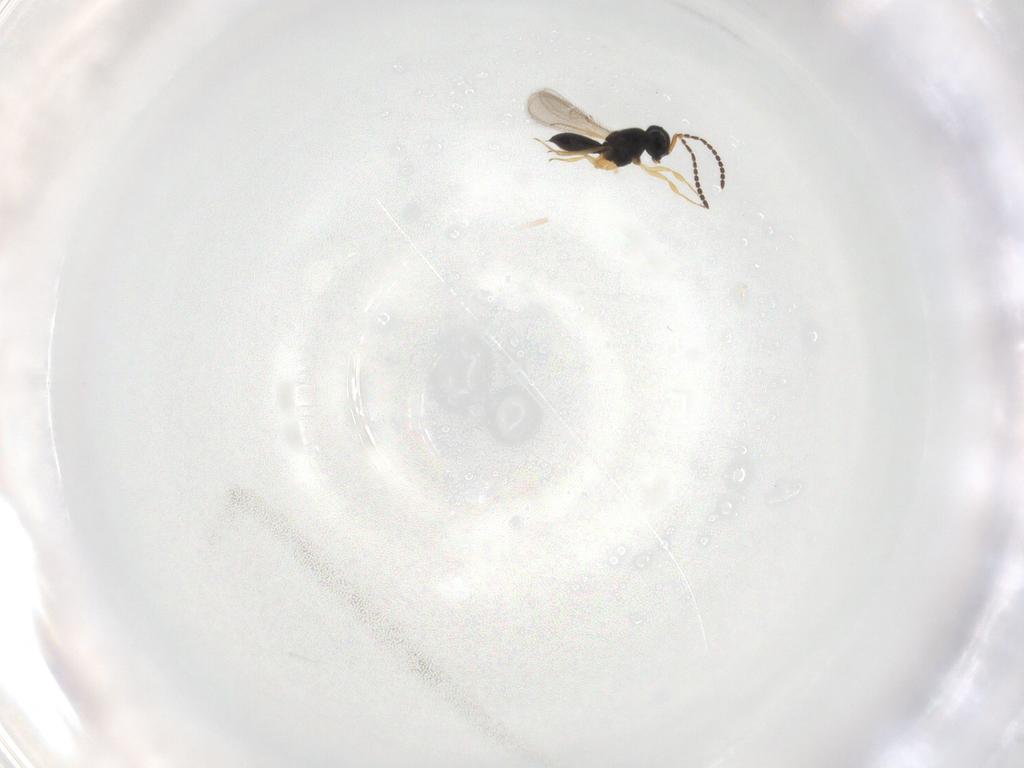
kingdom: Animalia
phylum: Arthropoda
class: Insecta
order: Hymenoptera
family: Scelionidae
